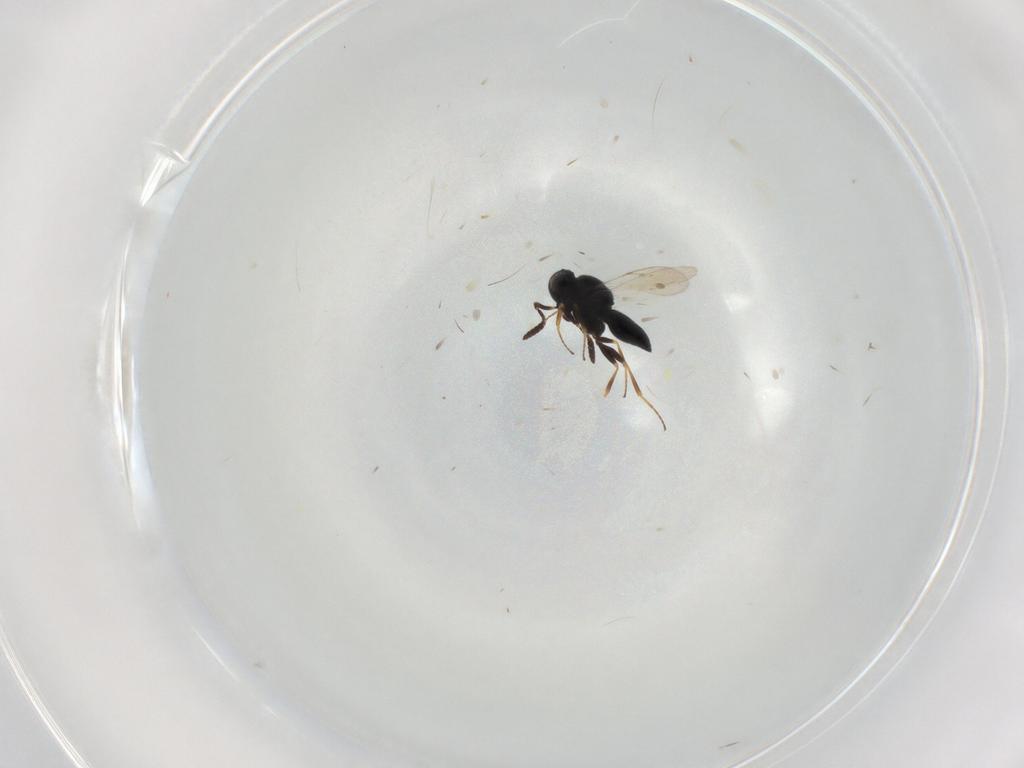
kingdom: Animalia
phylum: Arthropoda
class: Insecta
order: Hymenoptera
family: Scelionidae
